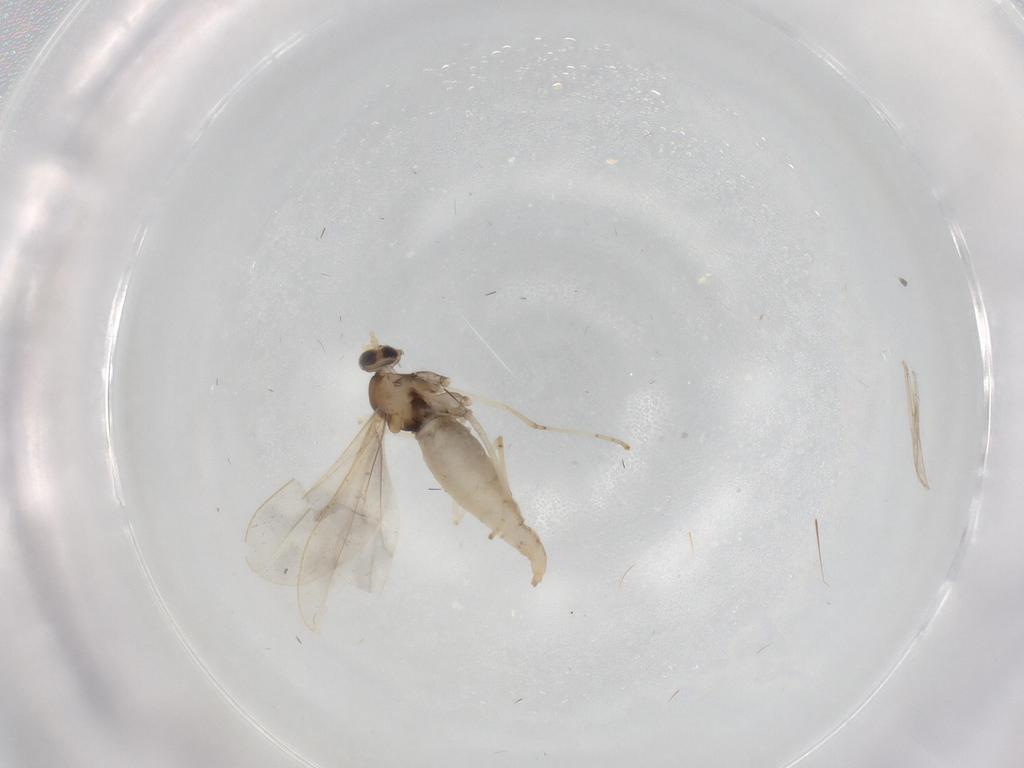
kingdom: Animalia
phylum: Arthropoda
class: Insecta
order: Diptera
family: Cecidomyiidae
